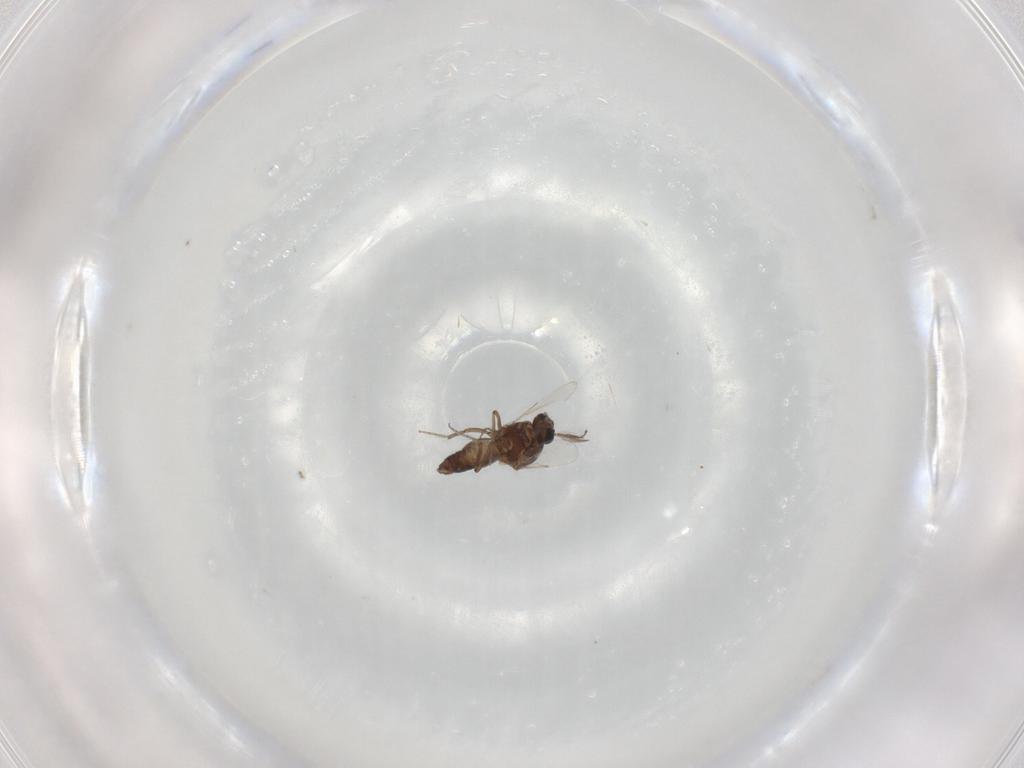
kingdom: Animalia
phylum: Arthropoda
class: Insecta
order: Diptera
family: Ceratopogonidae
